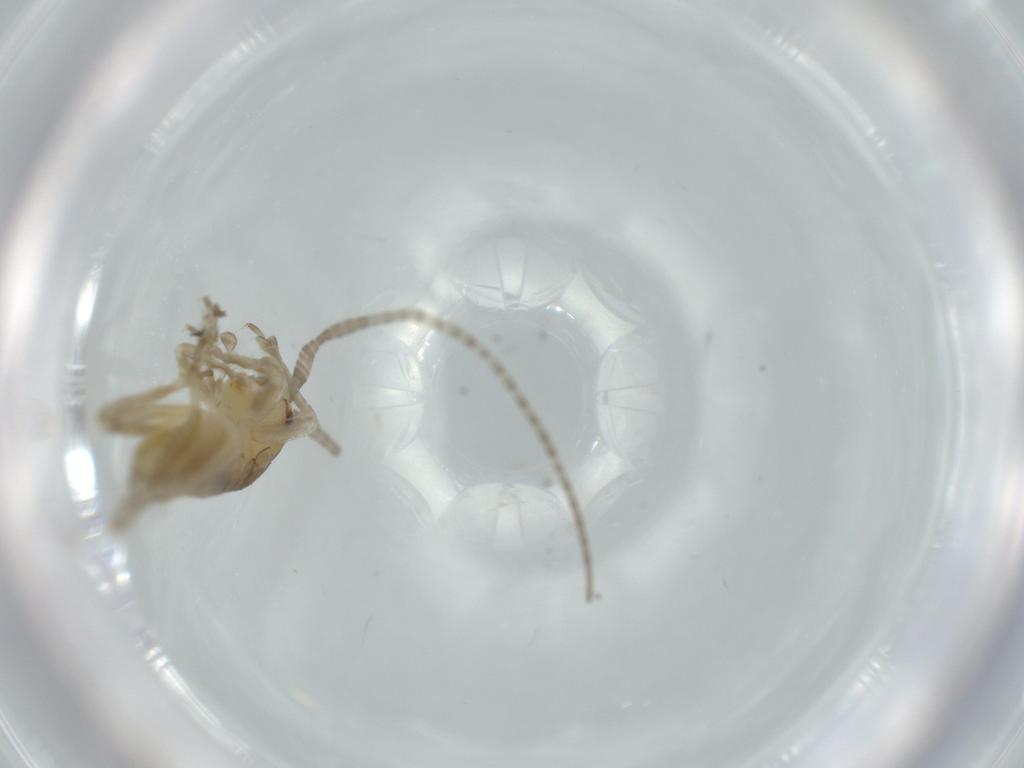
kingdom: Animalia
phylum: Arthropoda
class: Insecta
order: Orthoptera
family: Gryllidae
